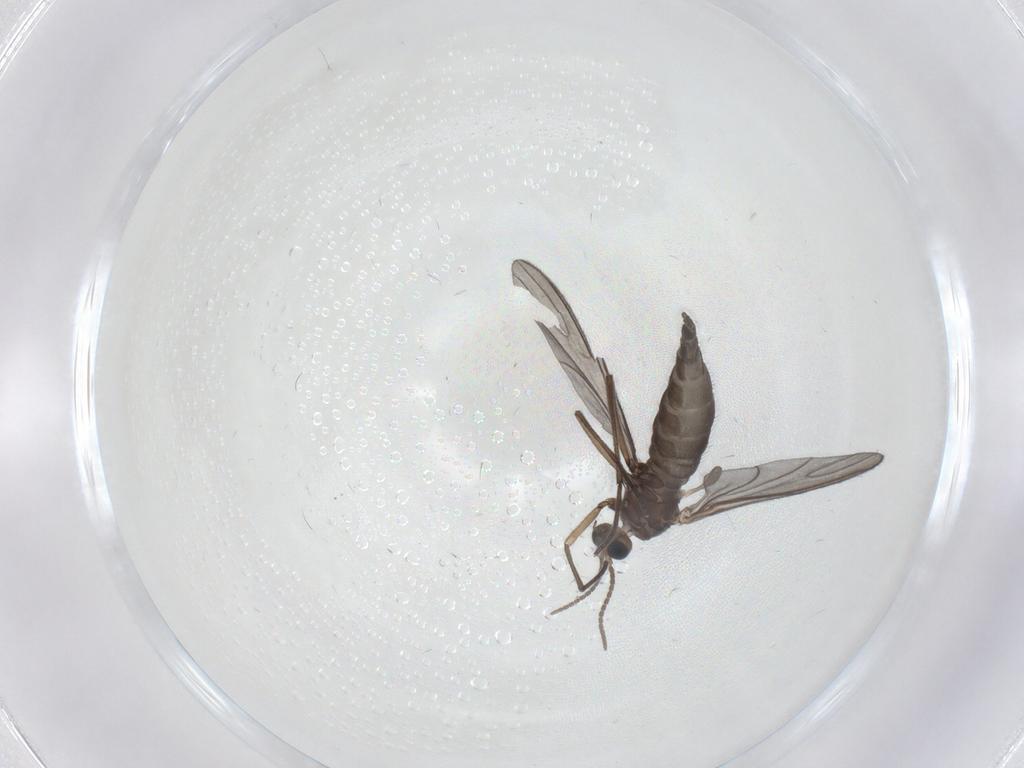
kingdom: Animalia
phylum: Arthropoda
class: Insecta
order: Diptera
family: Sciaridae
